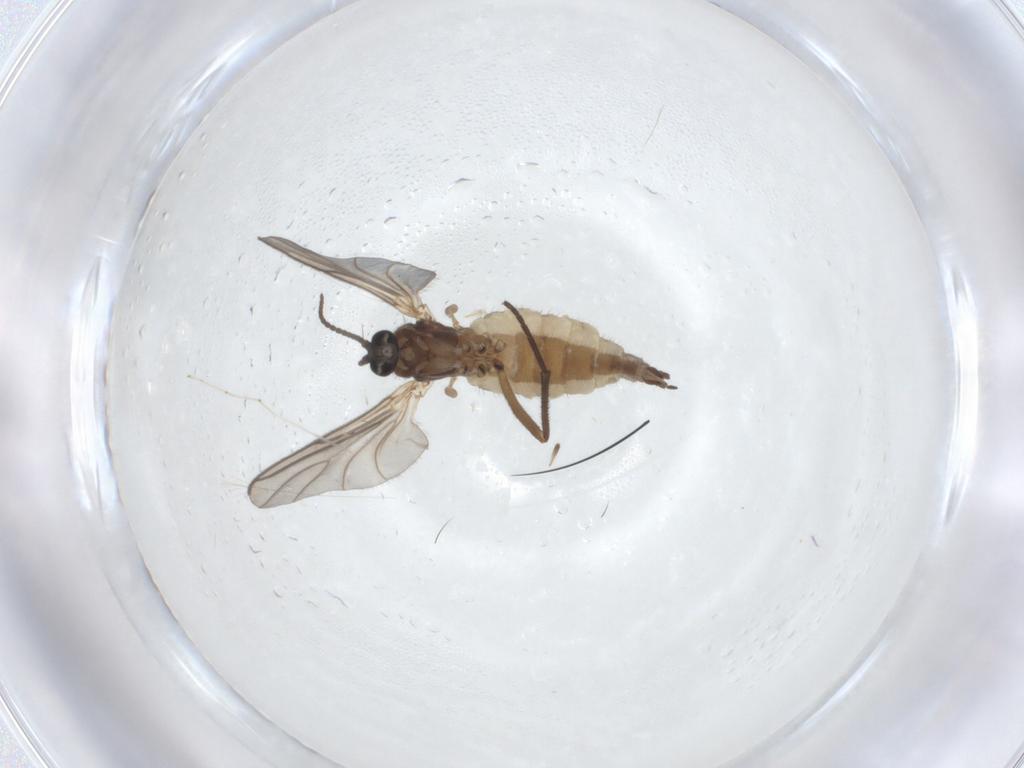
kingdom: Animalia
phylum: Arthropoda
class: Insecta
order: Diptera
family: Sciaridae
